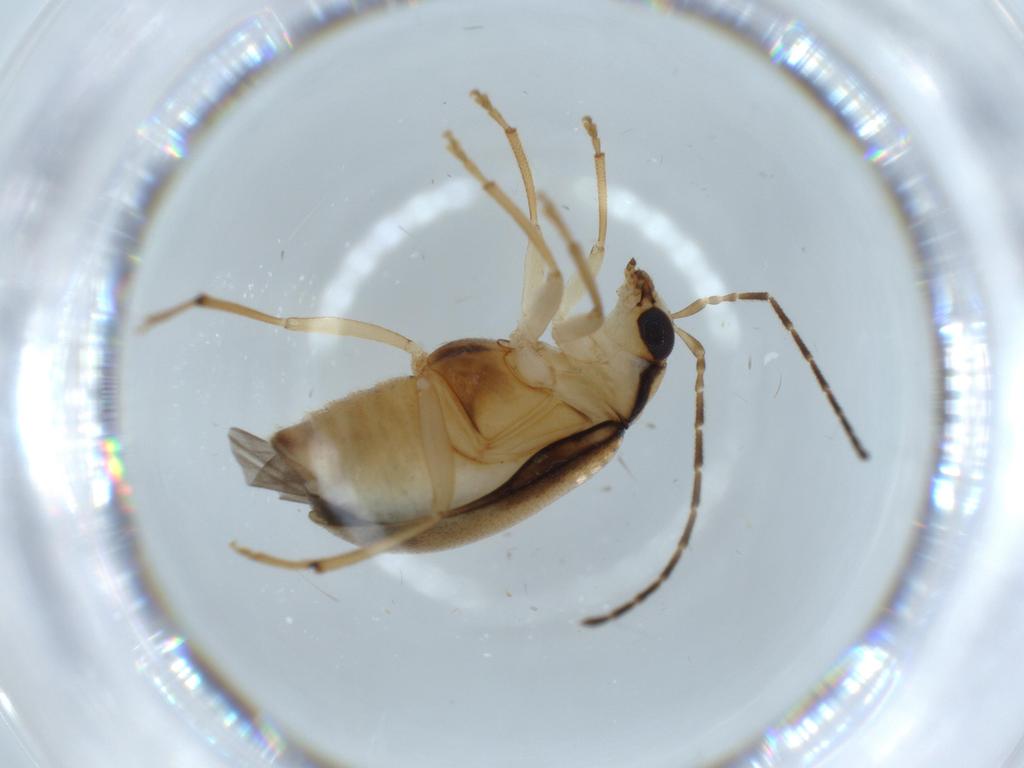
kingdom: Animalia
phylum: Arthropoda
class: Insecta
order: Coleoptera
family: Chrysomelidae
